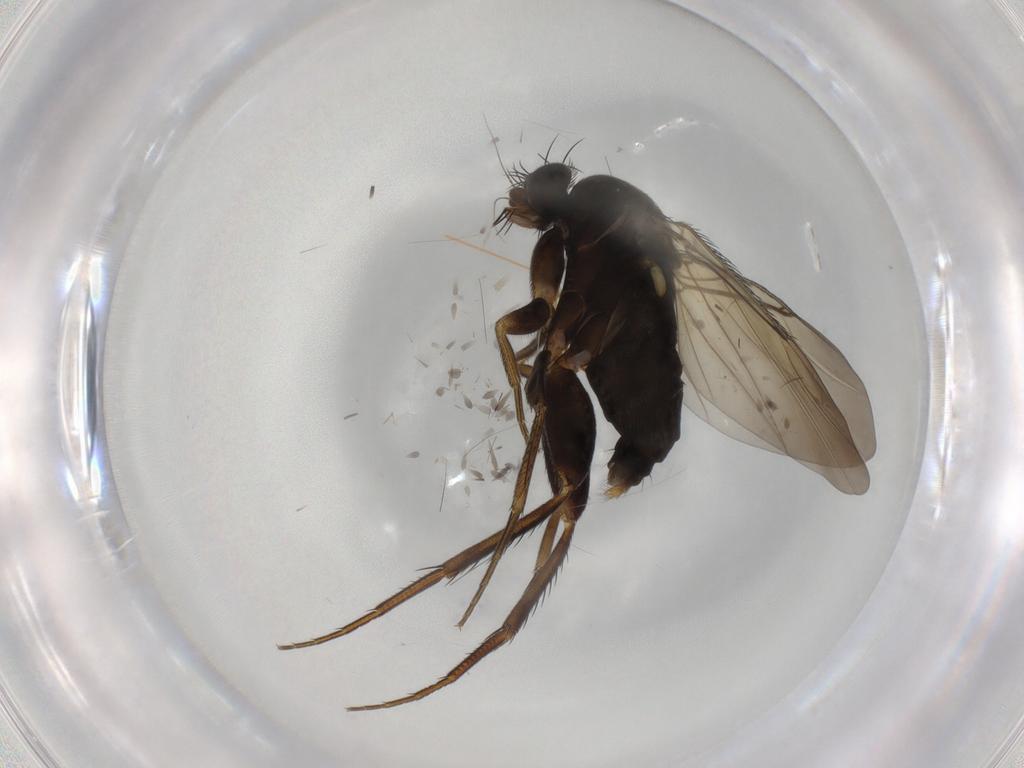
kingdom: Animalia
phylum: Arthropoda
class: Insecta
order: Diptera
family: Phoridae
